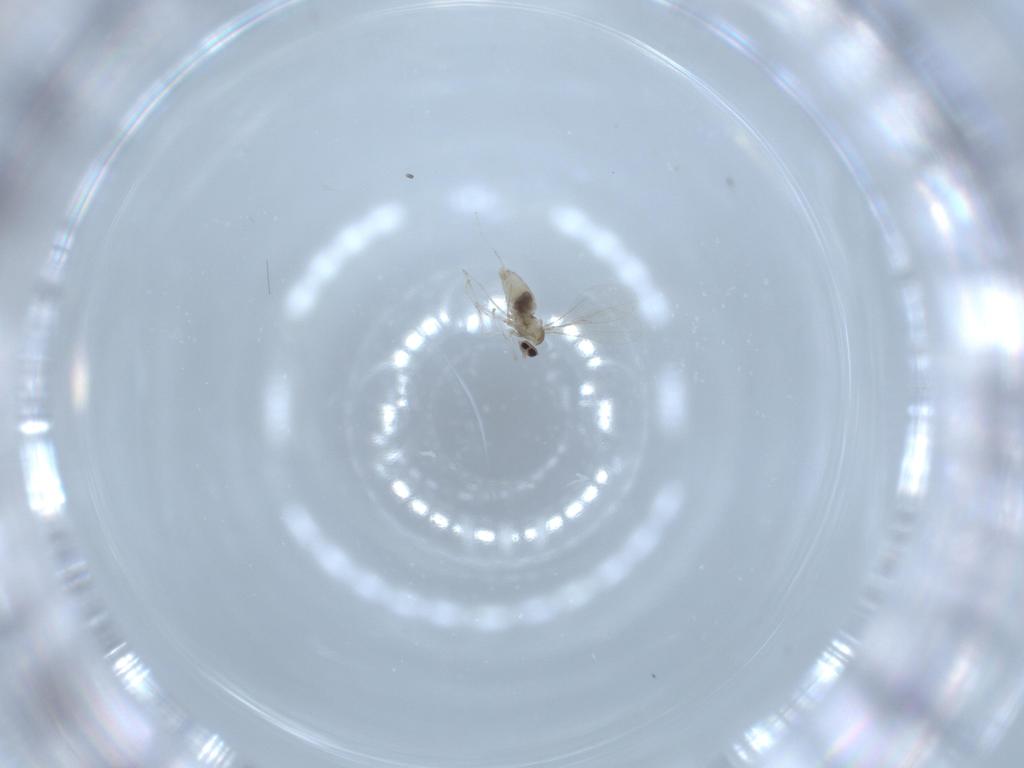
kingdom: Animalia
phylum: Arthropoda
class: Insecta
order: Diptera
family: Cecidomyiidae
